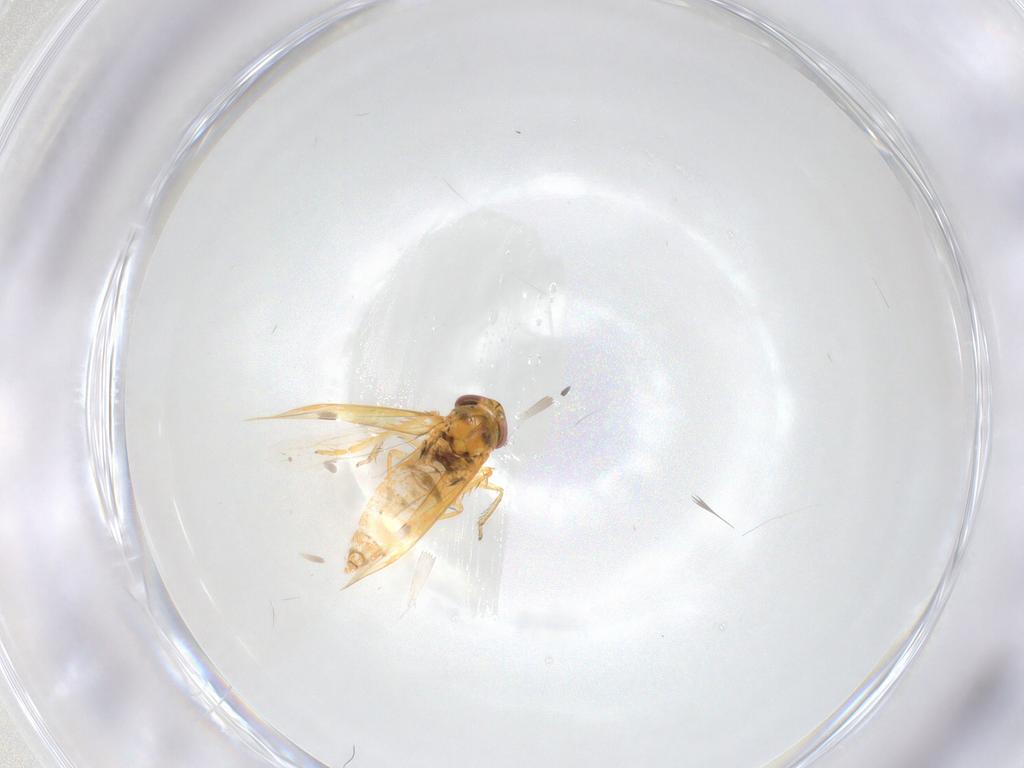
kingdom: Animalia
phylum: Arthropoda
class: Insecta
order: Hemiptera
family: Cicadellidae
